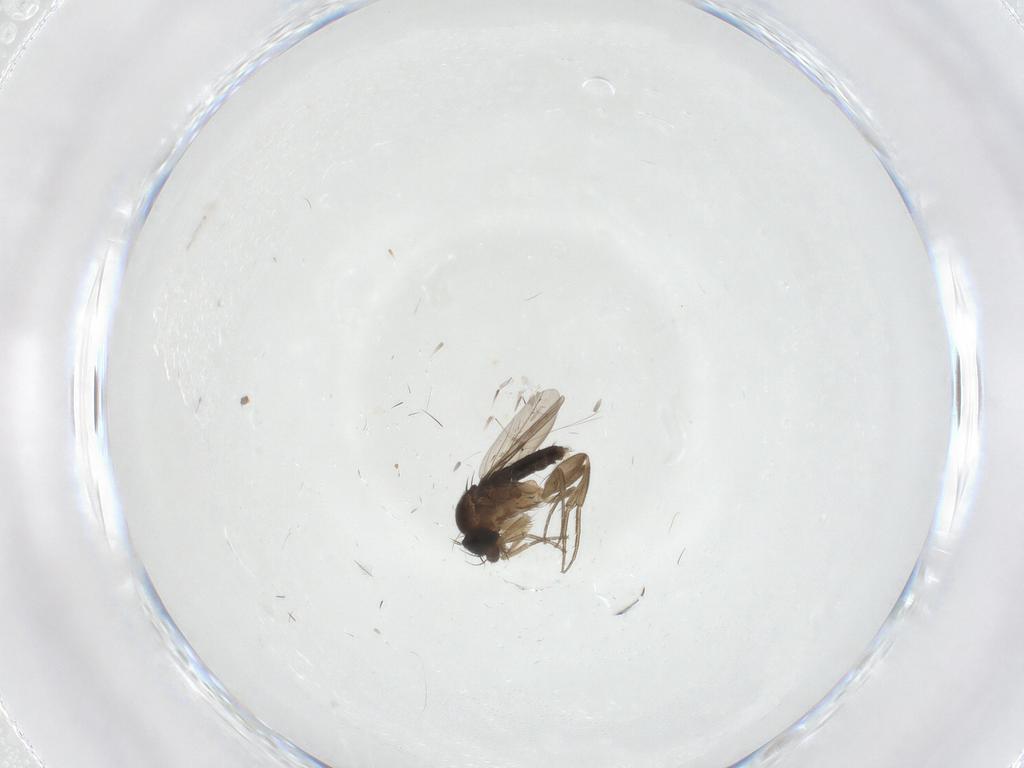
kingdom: Animalia
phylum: Arthropoda
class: Insecta
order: Diptera
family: Phoridae
